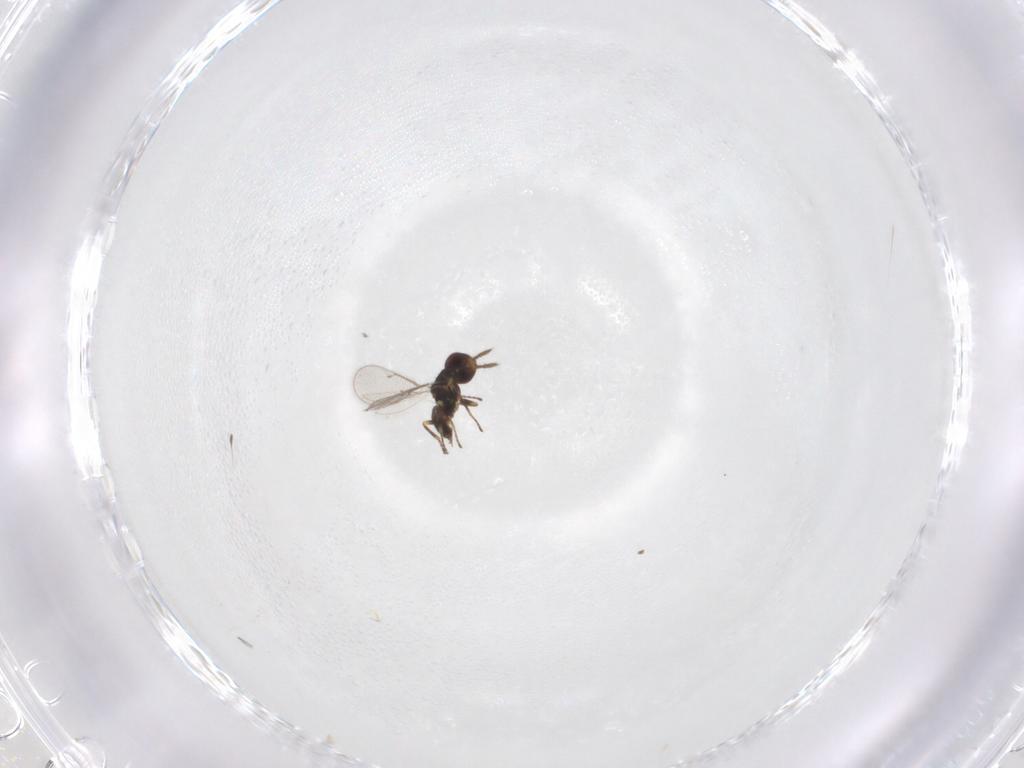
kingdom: Animalia
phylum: Arthropoda
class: Insecta
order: Hymenoptera
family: Eulophidae
